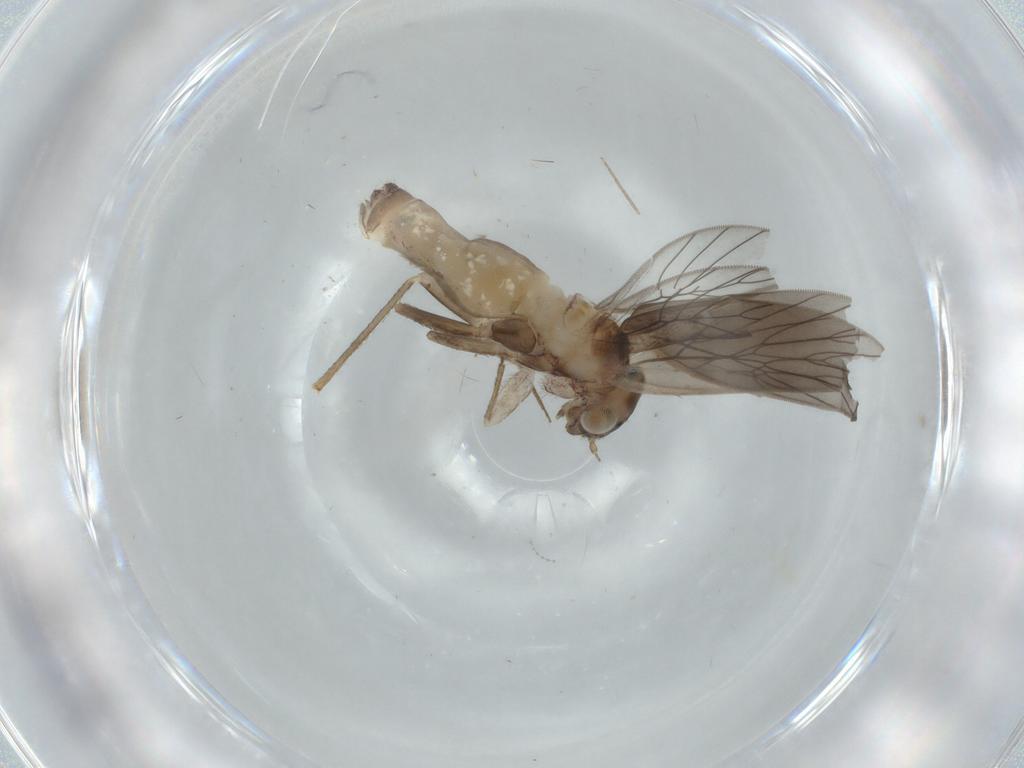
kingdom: Animalia
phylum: Arthropoda
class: Insecta
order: Psocodea
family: Lepidopsocidae
